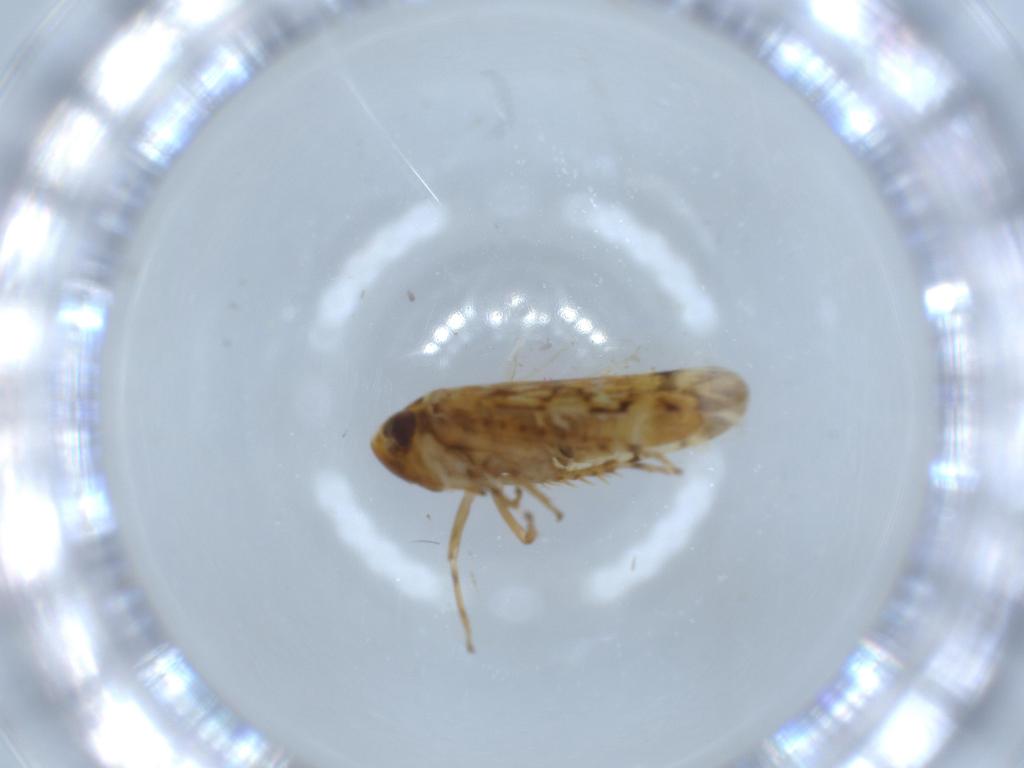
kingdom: Animalia
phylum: Arthropoda
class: Insecta
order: Hemiptera
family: Cicadellidae
